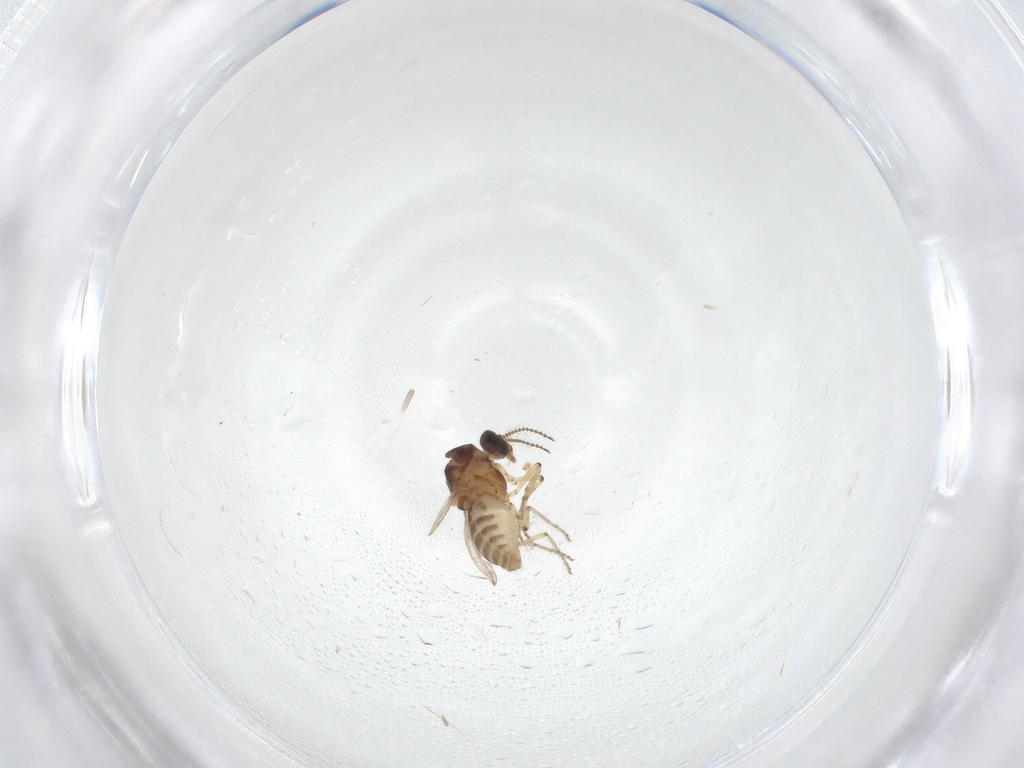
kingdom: Animalia
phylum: Arthropoda
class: Insecta
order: Diptera
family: Ceratopogonidae
